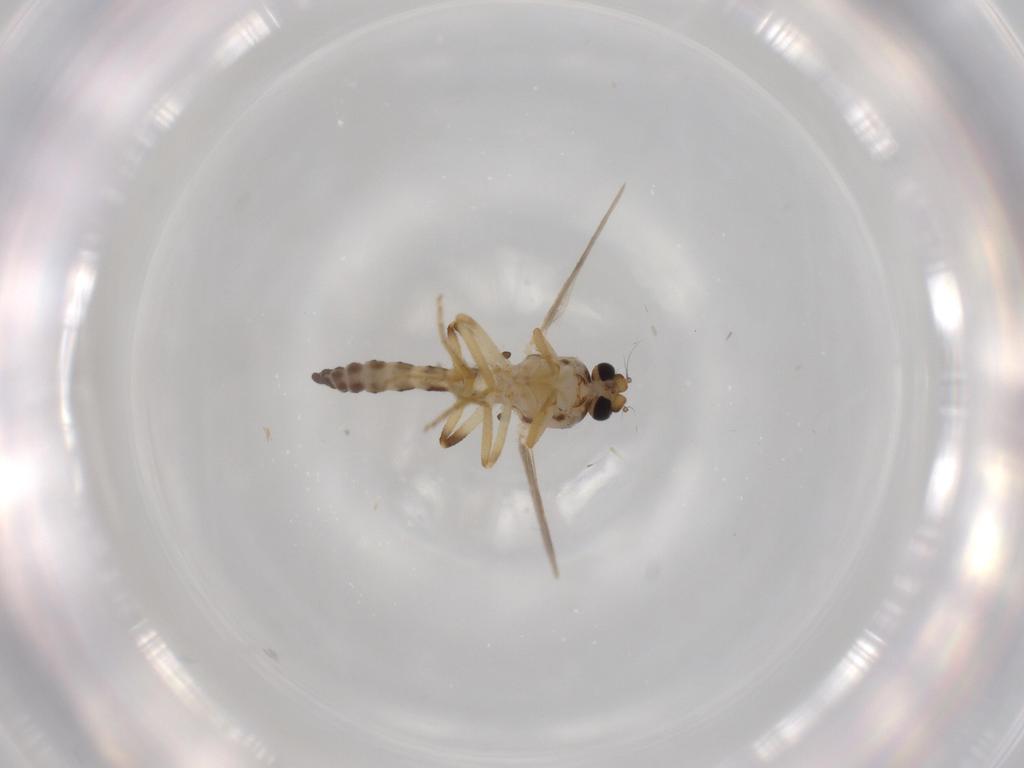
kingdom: Animalia
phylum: Arthropoda
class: Insecta
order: Diptera
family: Ceratopogonidae
